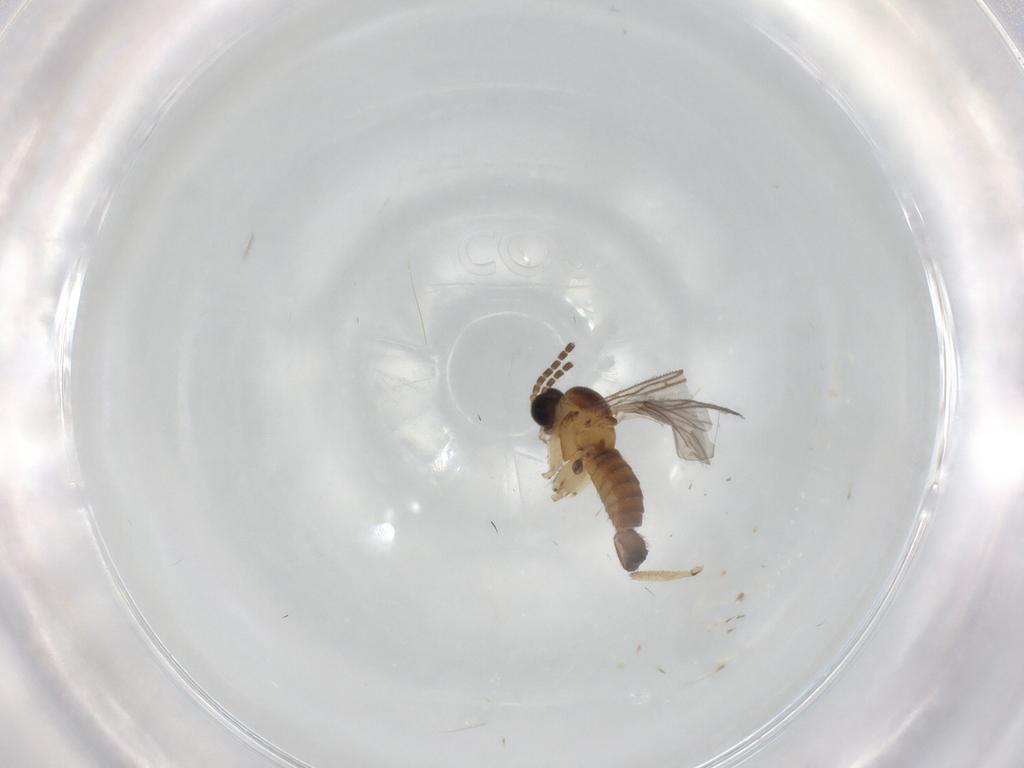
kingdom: Animalia
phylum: Arthropoda
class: Insecta
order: Diptera
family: Sciaridae
